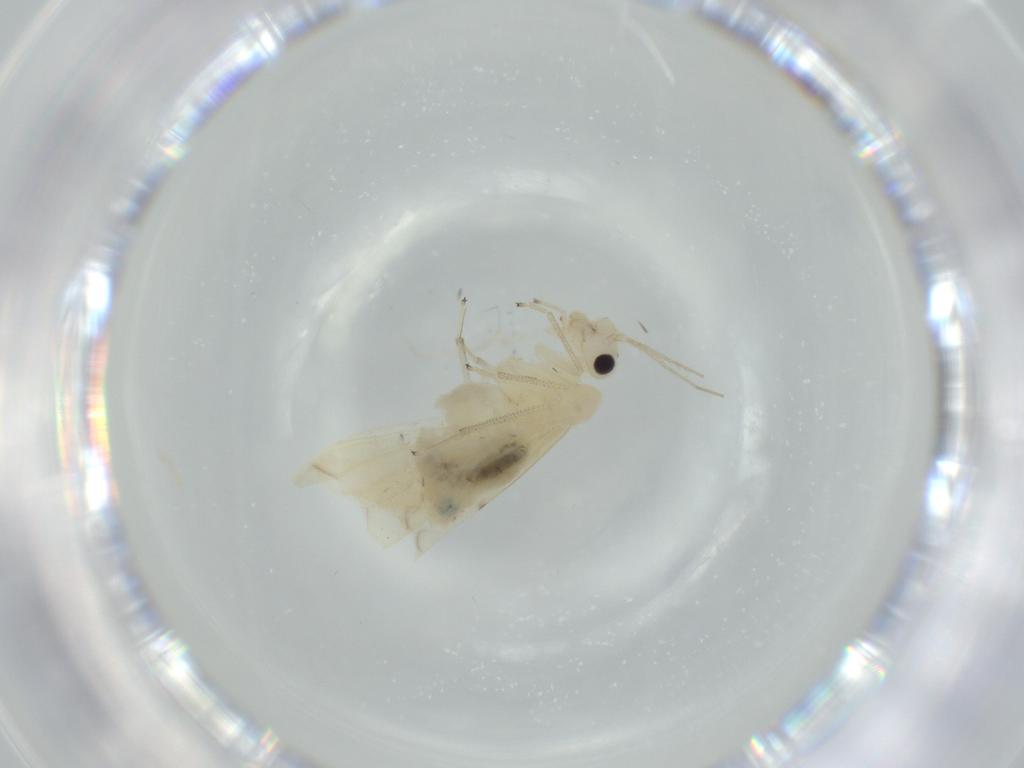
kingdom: Animalia
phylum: Arthropoda
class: Insecta
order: Psocodea
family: Caeciliusidae
